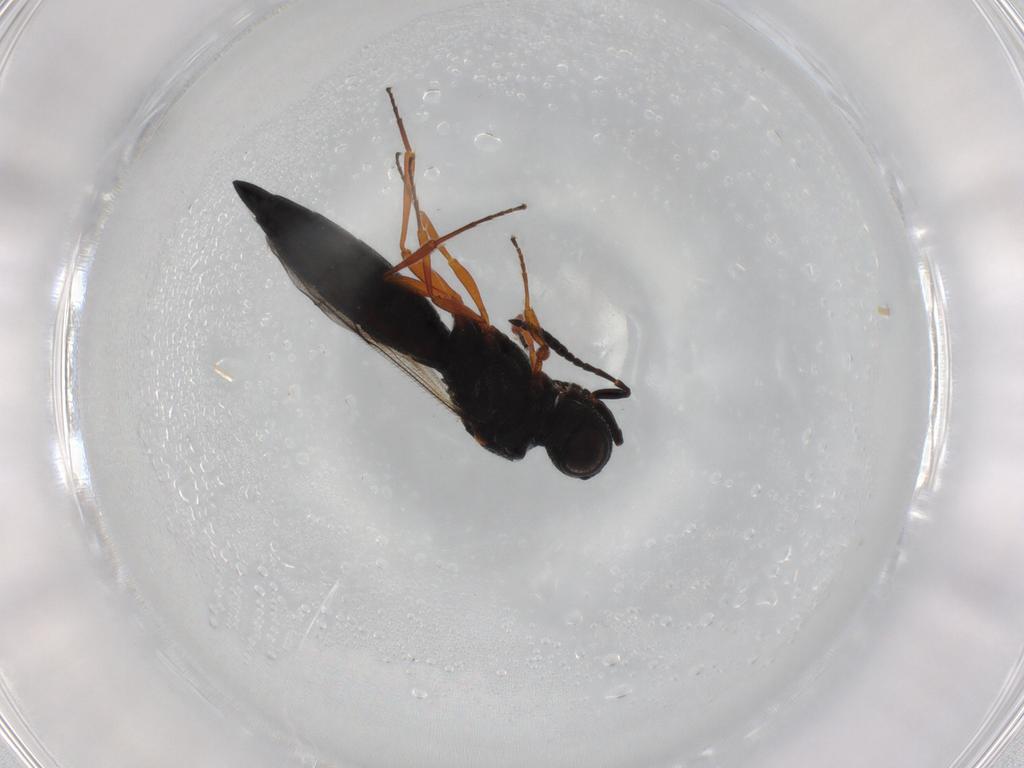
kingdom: Animalia
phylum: Arthropoda
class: Insecta
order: Hymenoptera
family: Scelionidae
